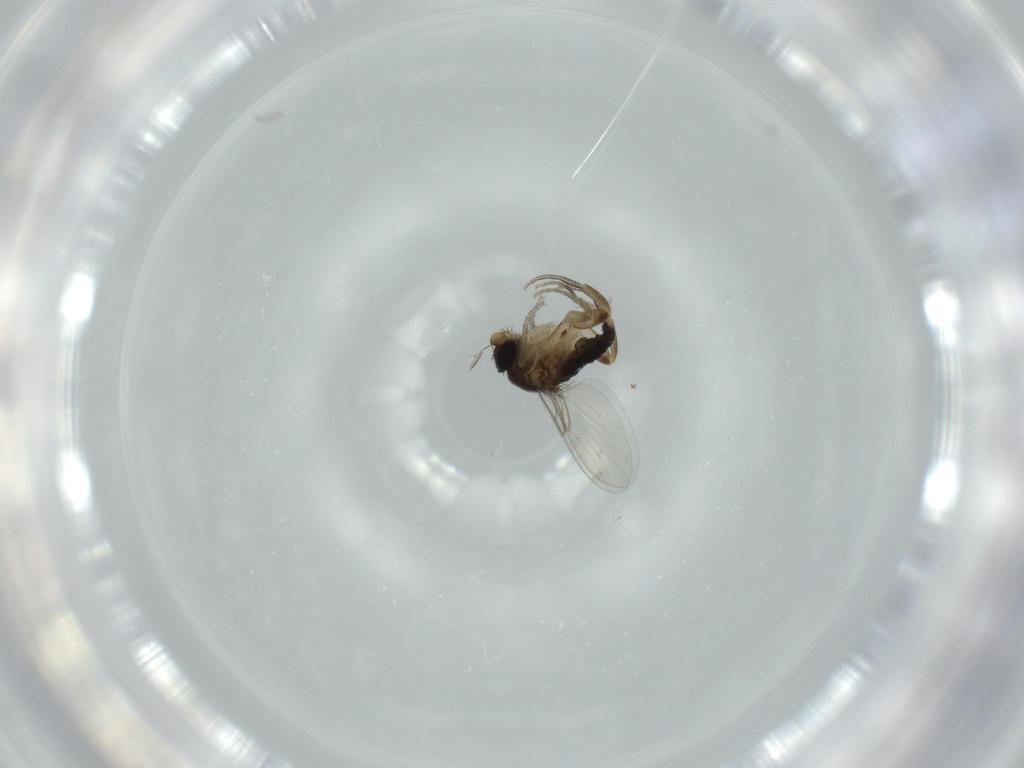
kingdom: Animalia
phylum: Arthropoda
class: Insecta
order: Diptera
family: Phoridae
